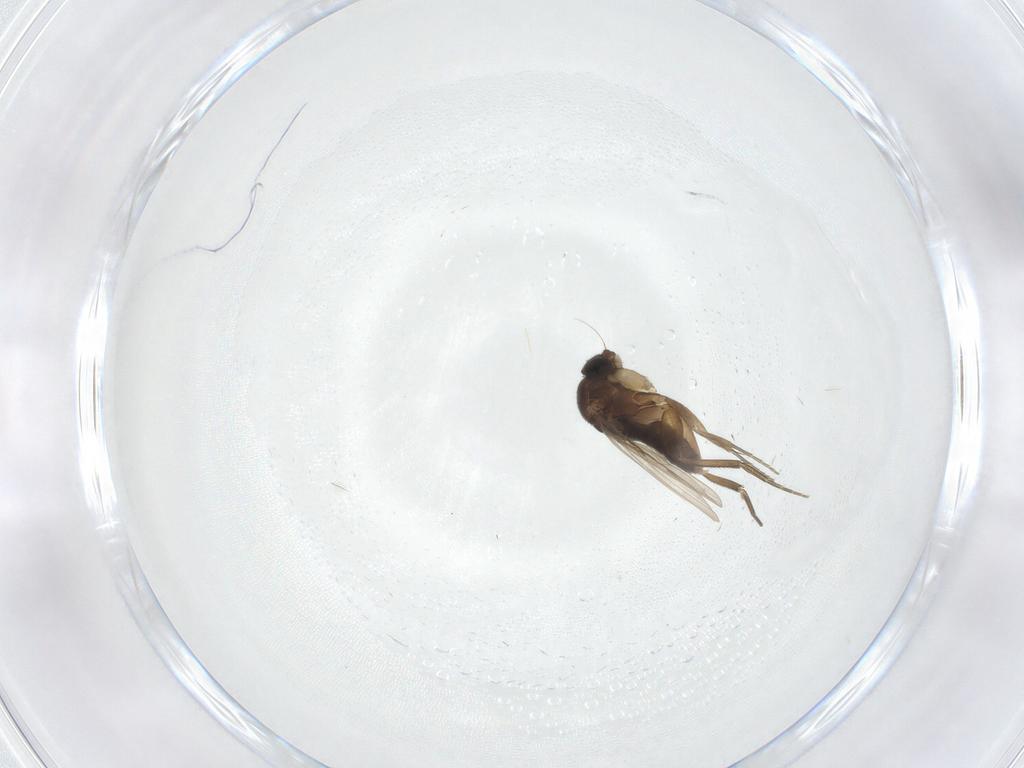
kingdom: Animalia
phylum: Arthropoda
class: Insecta
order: Diptera
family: Phoridae
